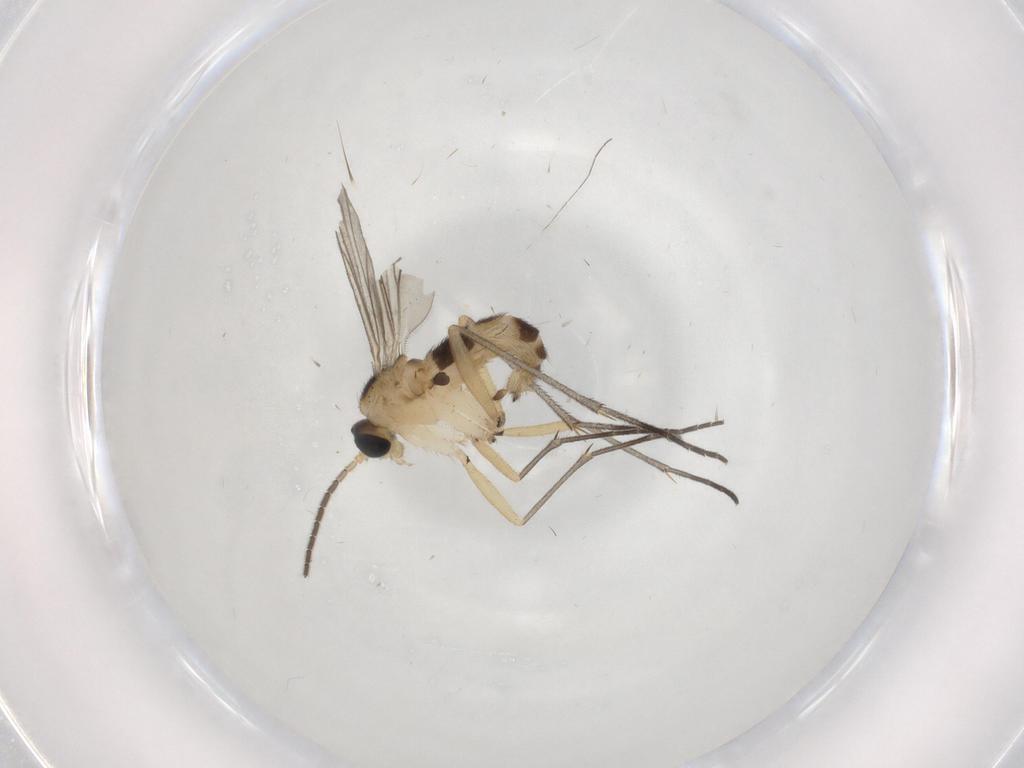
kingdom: Animalia
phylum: Arthropoda
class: Insecta
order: Diptera
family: Sciaridae
